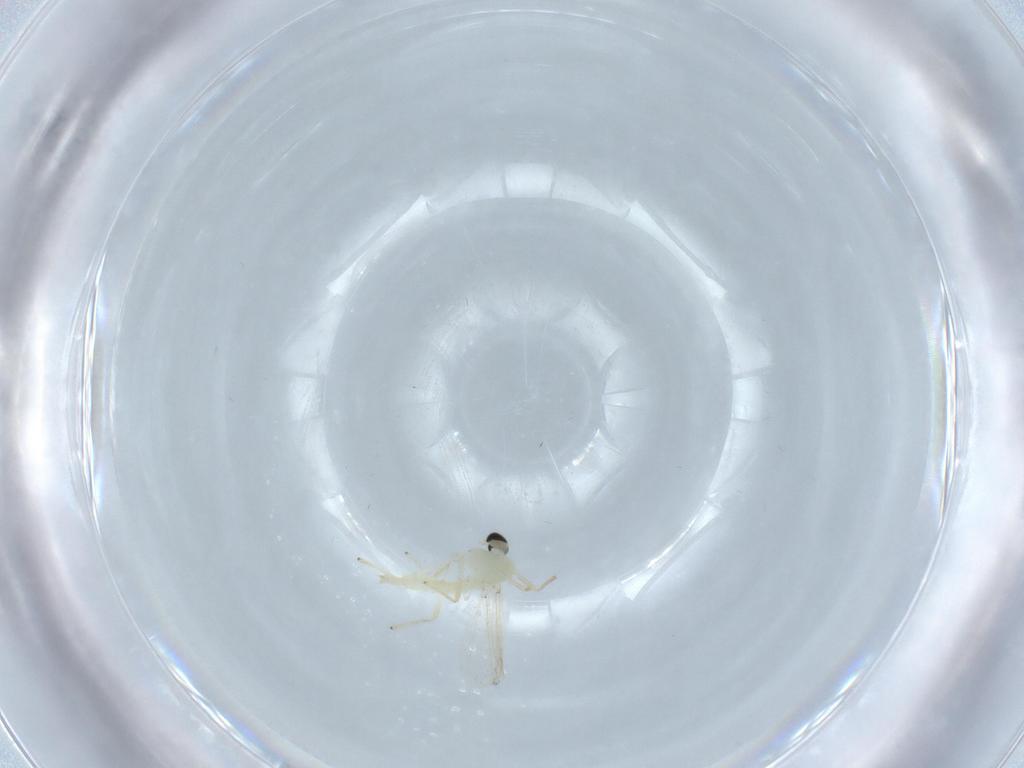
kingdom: Animalia
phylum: Arthropoda
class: Insecta
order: Diptera
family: Chironomidae
